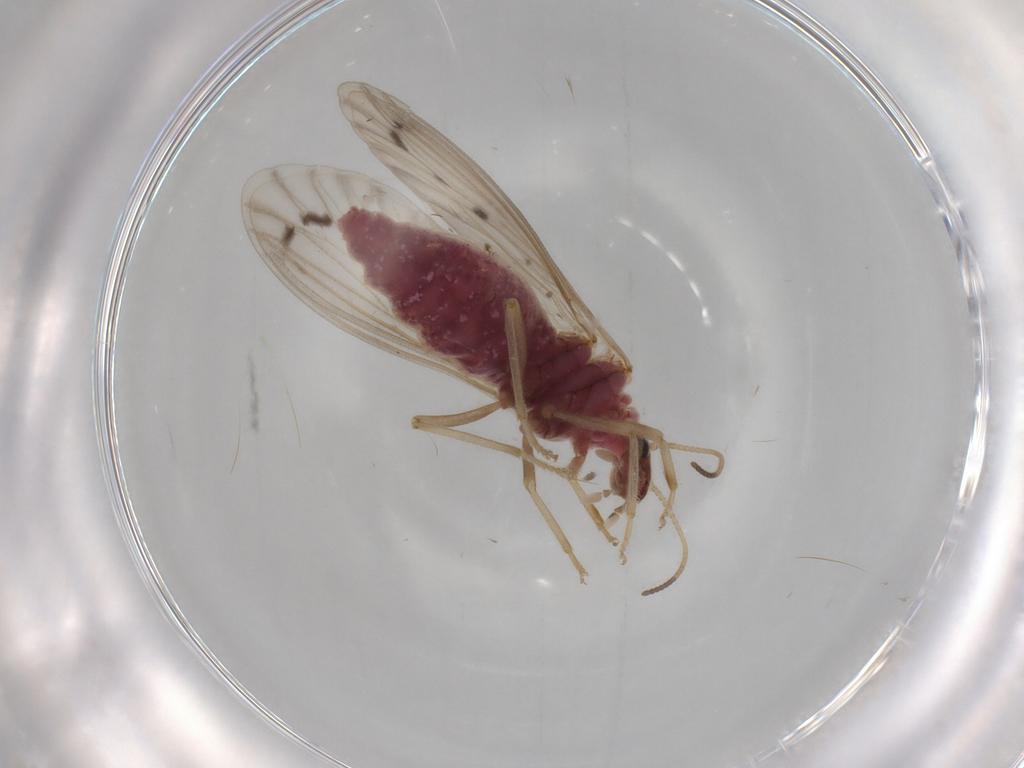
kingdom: Animalia
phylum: Arthropoda
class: Insecta
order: Neuroptera
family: Coniopterygidae
